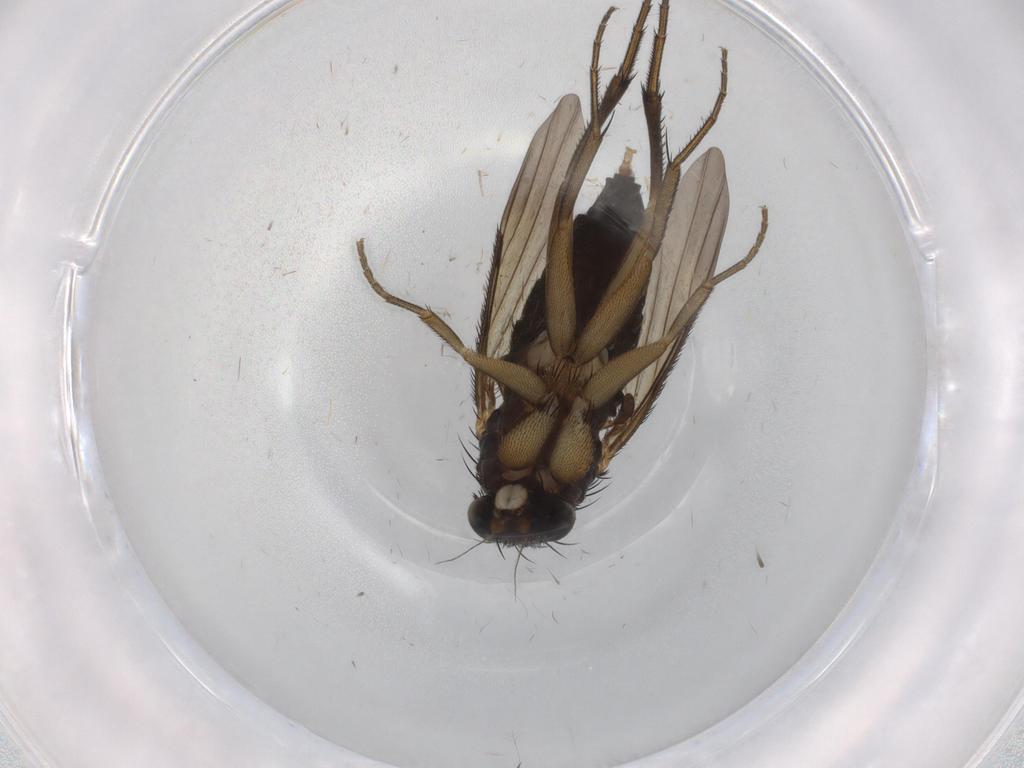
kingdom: Animalia
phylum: Arthropoda
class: Insecta
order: Diptera
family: Phoridae
